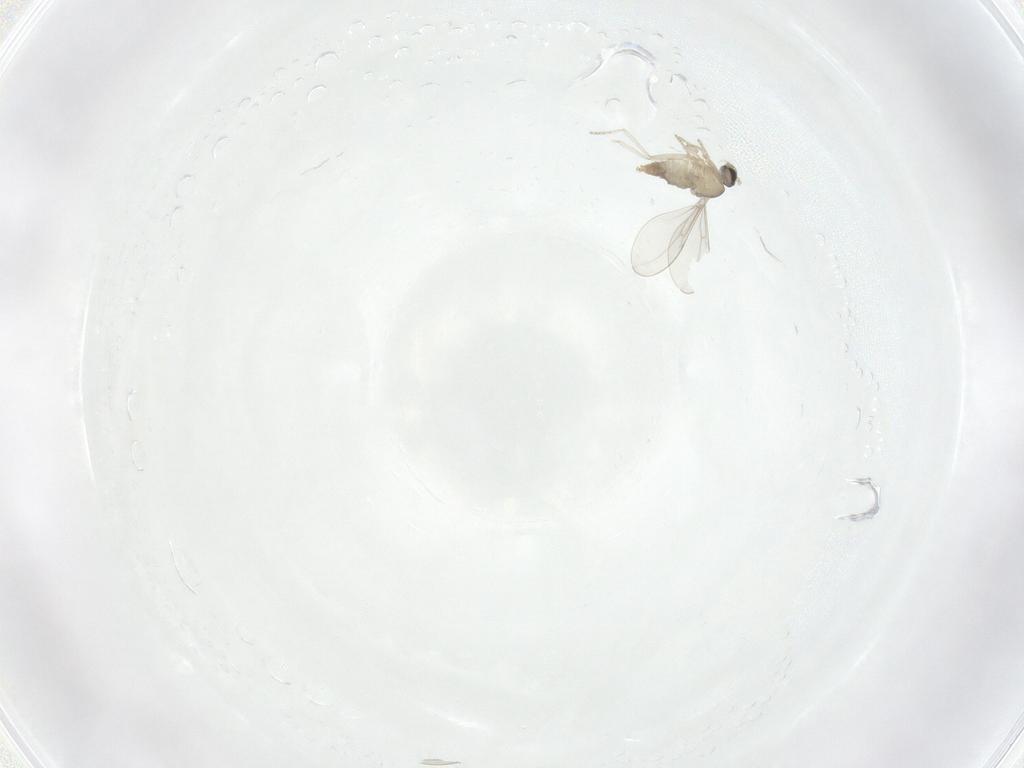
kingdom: Animalia
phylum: Arthropoda
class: Insecta
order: Diptera
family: Cecidomyiidae
